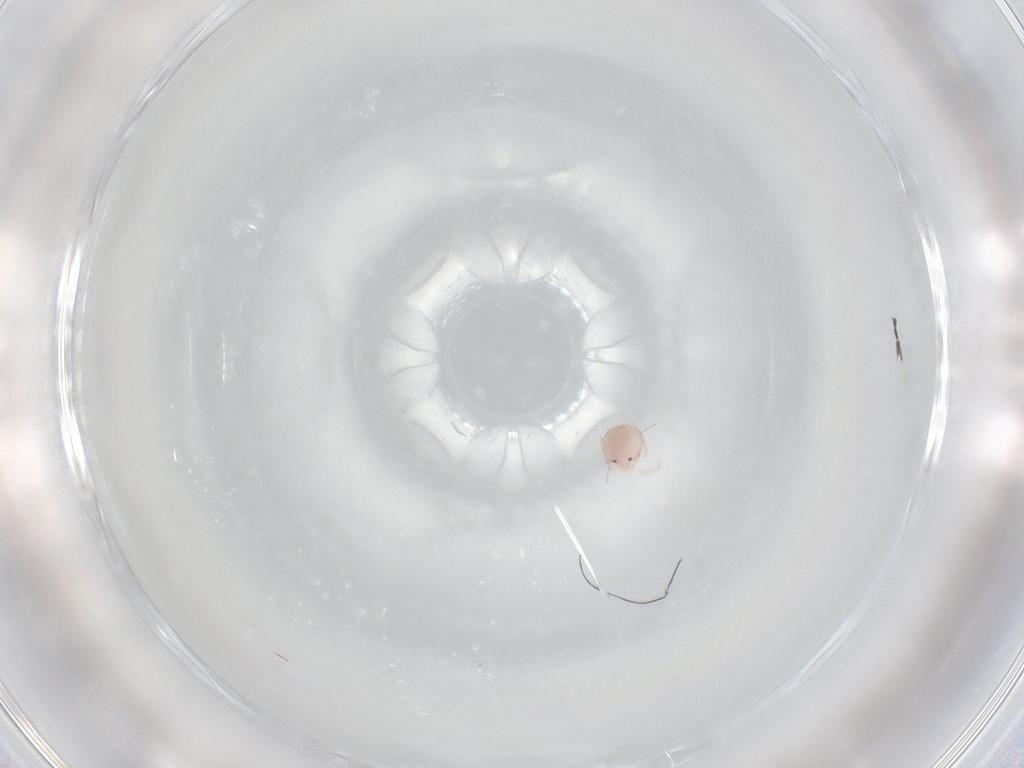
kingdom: Animalia
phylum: Arthropoda
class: Arachnida
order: Trombidiformes
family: Lebertiidae
